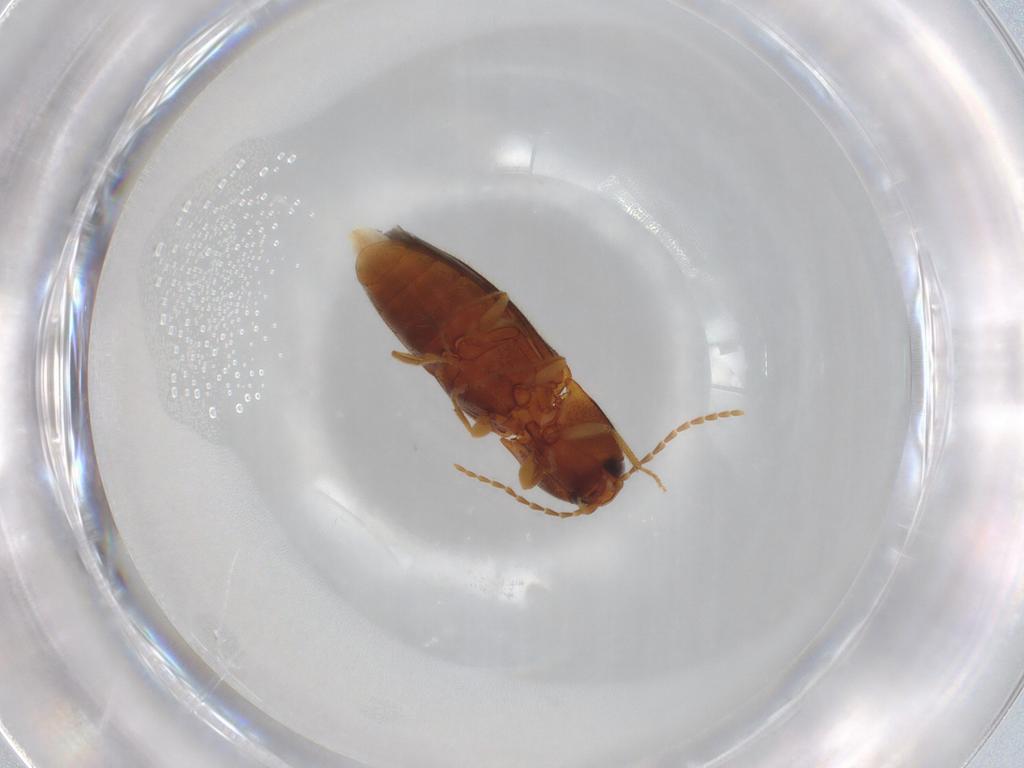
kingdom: Animalia
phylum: Arthropoda
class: Insecta
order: Coleoptera
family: Elateridae
